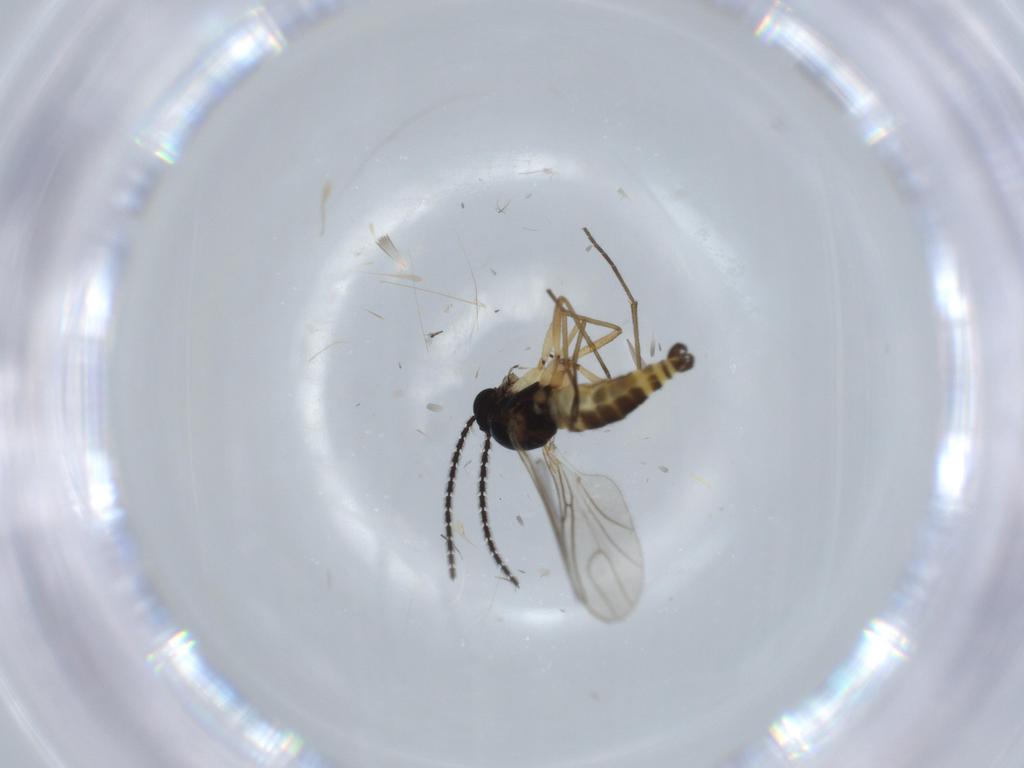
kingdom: Animalia
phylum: Arthropoda
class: Insecta
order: Diptera
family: Sciaridae
